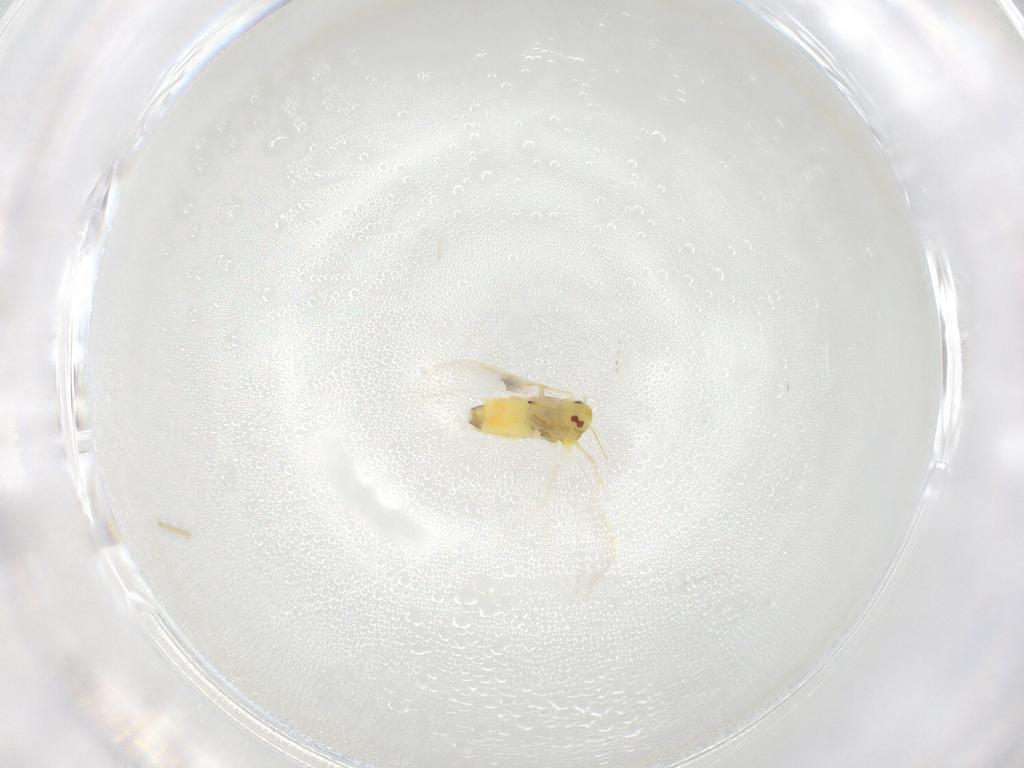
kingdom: Animalia
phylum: Arthropoda
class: Insecta
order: Hemiptera
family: Aleyrodidae
